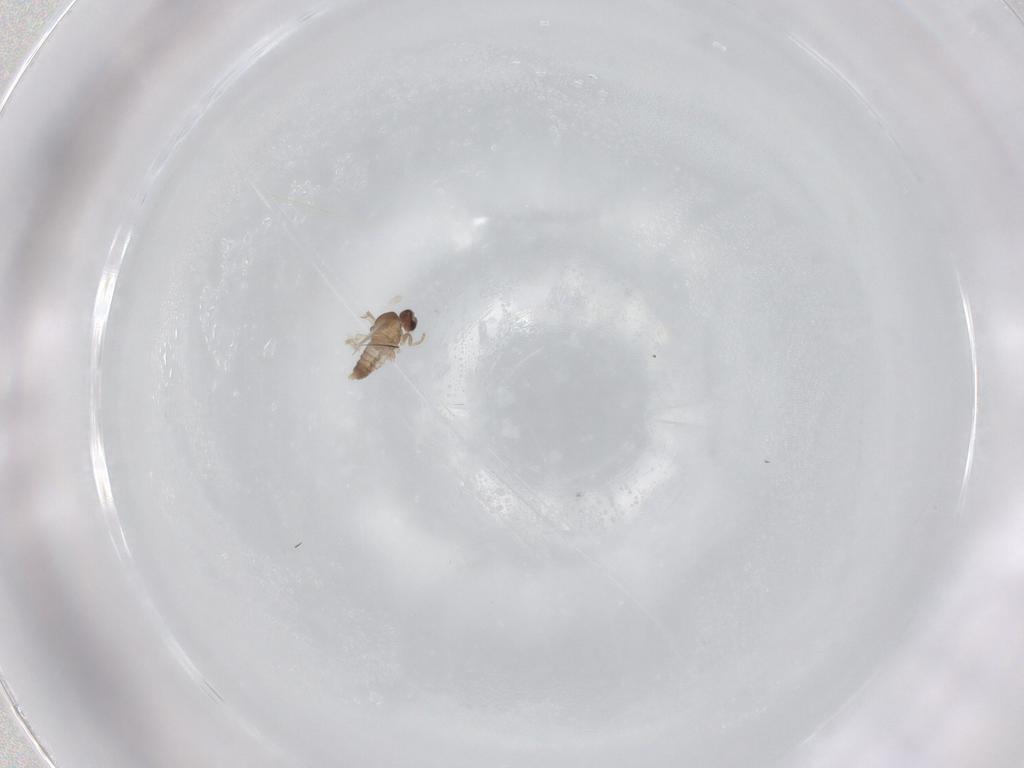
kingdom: Animalia
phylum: Arthropoda
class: Insecta
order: Diptera
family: Cecidomyiidae
